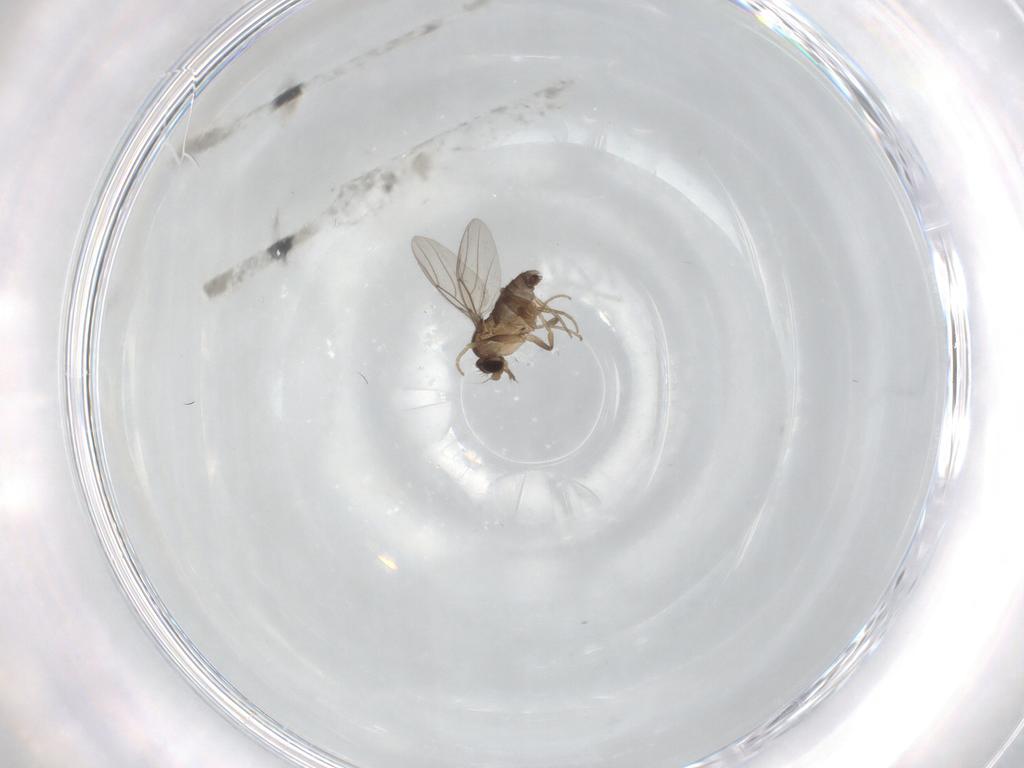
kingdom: Animalia
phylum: Arthropoda
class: Insecta
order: Diptera
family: Phoridae
